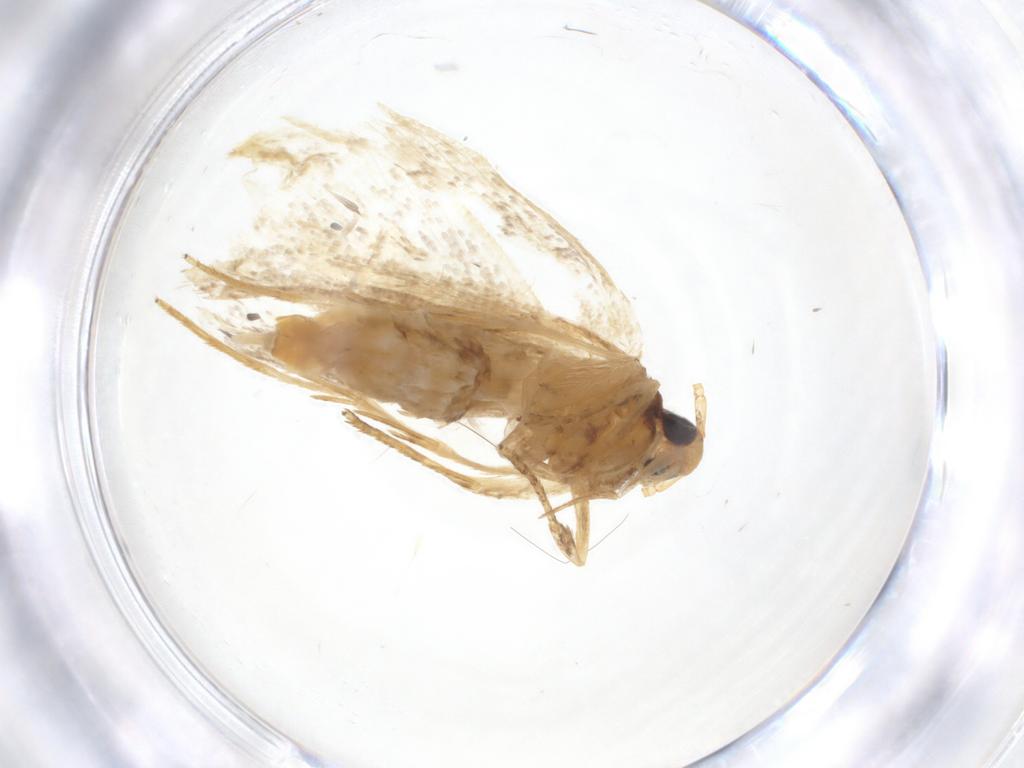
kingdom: Animalia
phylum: Arthropoda
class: Insecta
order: Lepidoptera
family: Lecithoceridae
